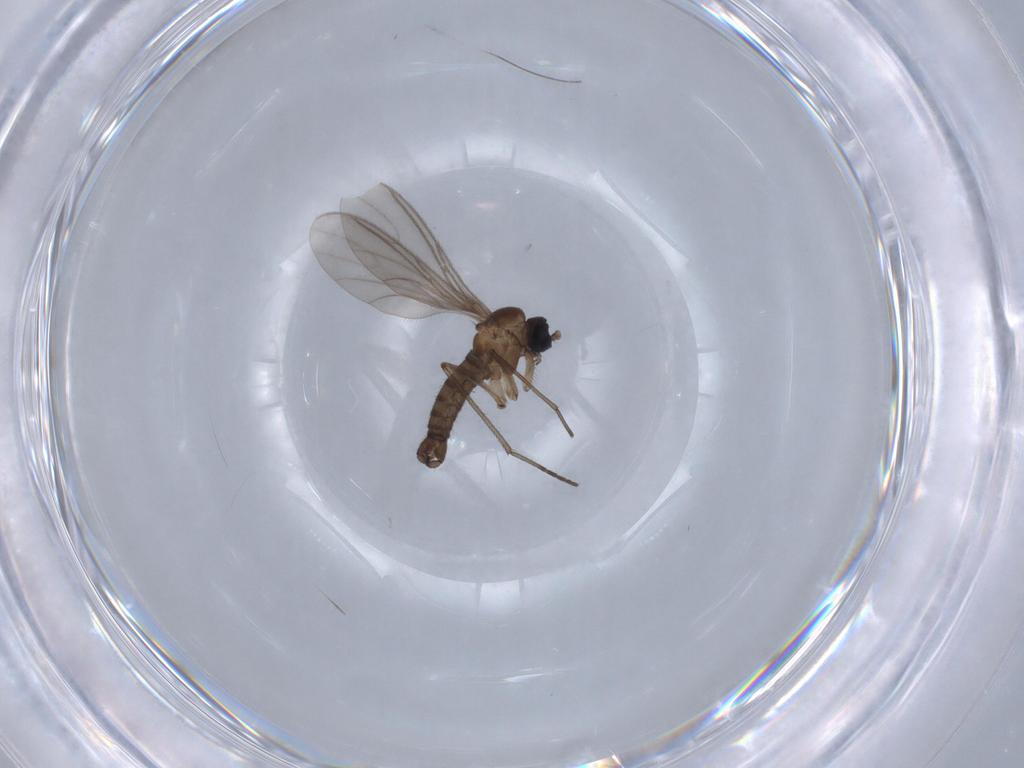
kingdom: Animalia
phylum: Arthropoda
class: Insecta
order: Diptera
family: Sciaridae
